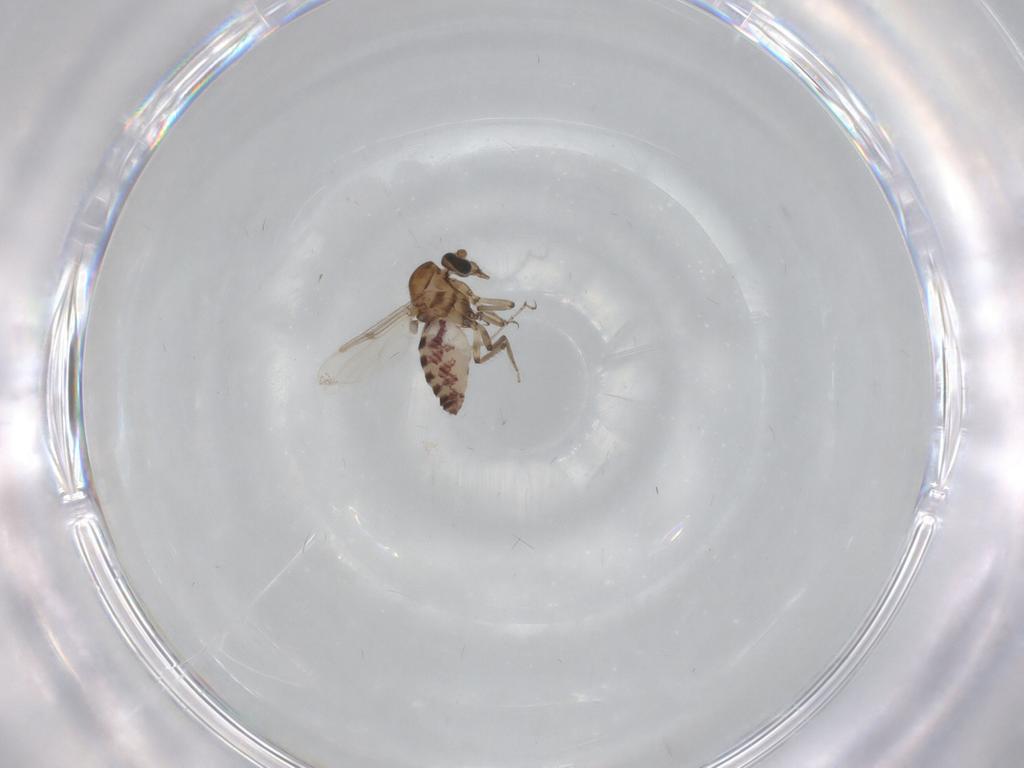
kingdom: Animalia
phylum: Arthropoda
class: Insecta
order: Diptera
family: Ceratopogonidae
